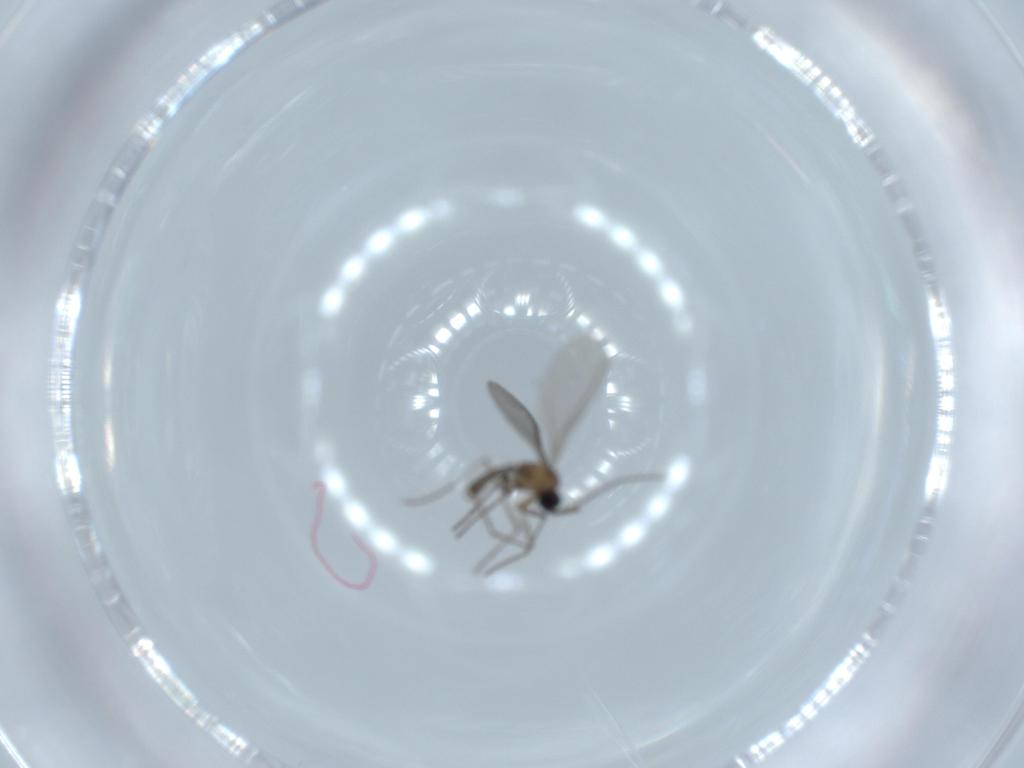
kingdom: Animalia
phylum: Arthropoda
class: Insecta
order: Diptera
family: Sciaridae
